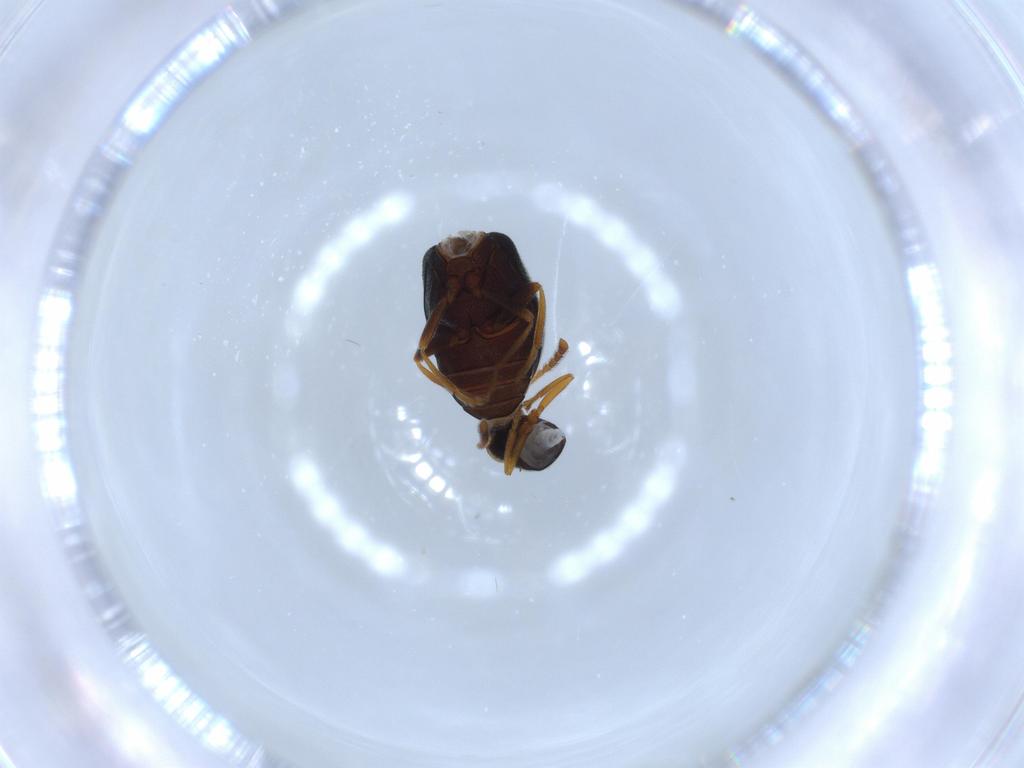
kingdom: Animalia
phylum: Arthropoda
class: Insecta
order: Coleoptera
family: Aderidae
